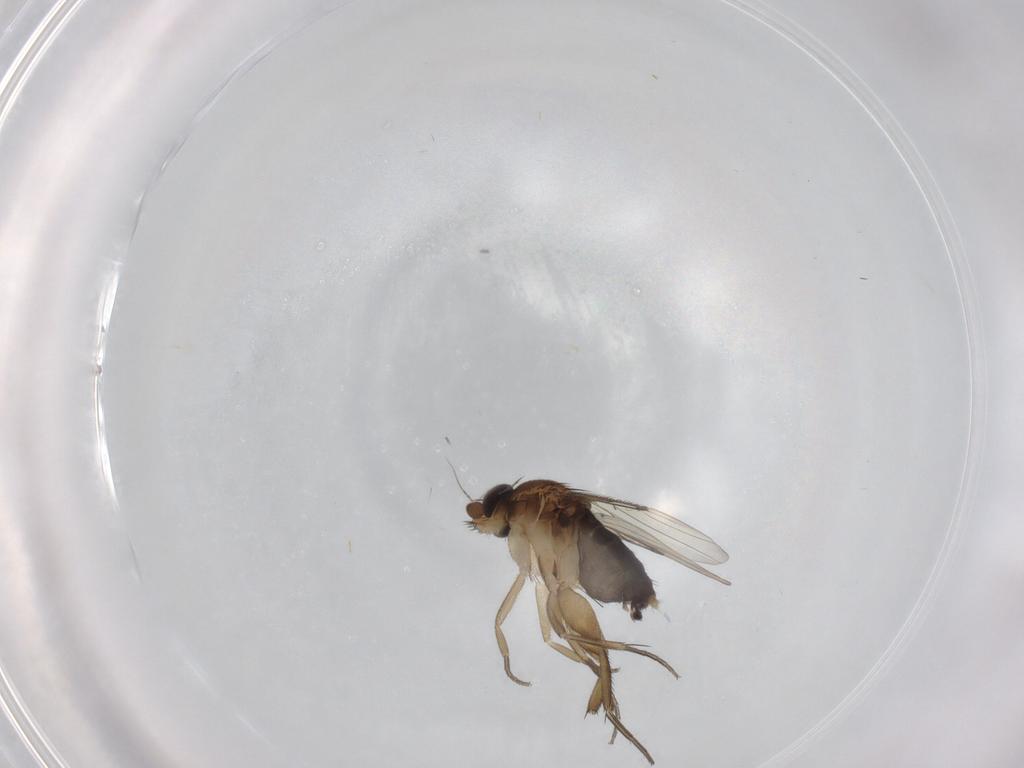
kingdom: Animalia
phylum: Arthropoda
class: Insecta
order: Diptera
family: Phoridae
